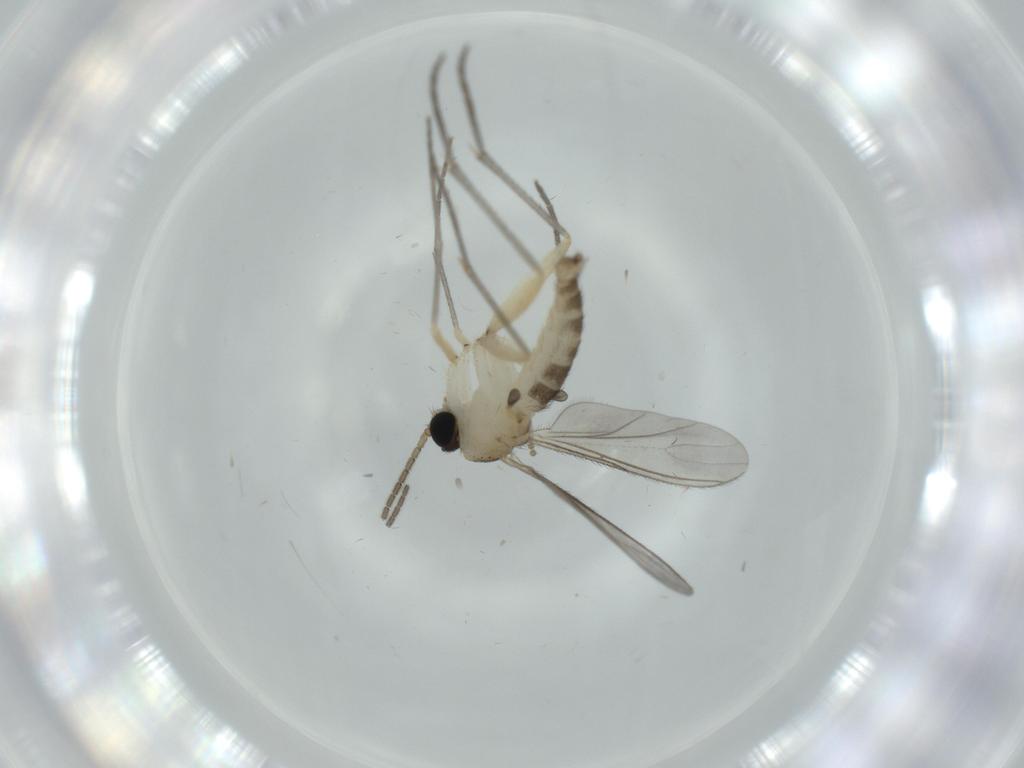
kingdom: Animalia
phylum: Arthropoda
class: Insecta
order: Diptera
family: Sciaridae
